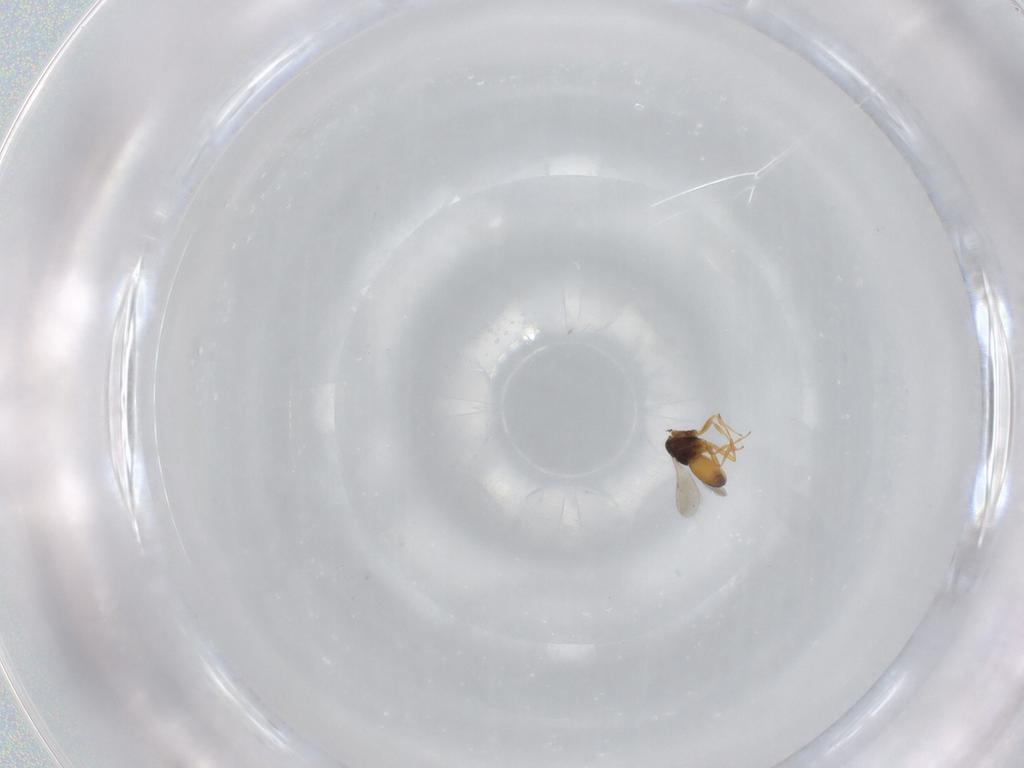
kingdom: Animalia
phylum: Arthropoda
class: Insecta
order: Hymenoptera
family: Scelionidae
